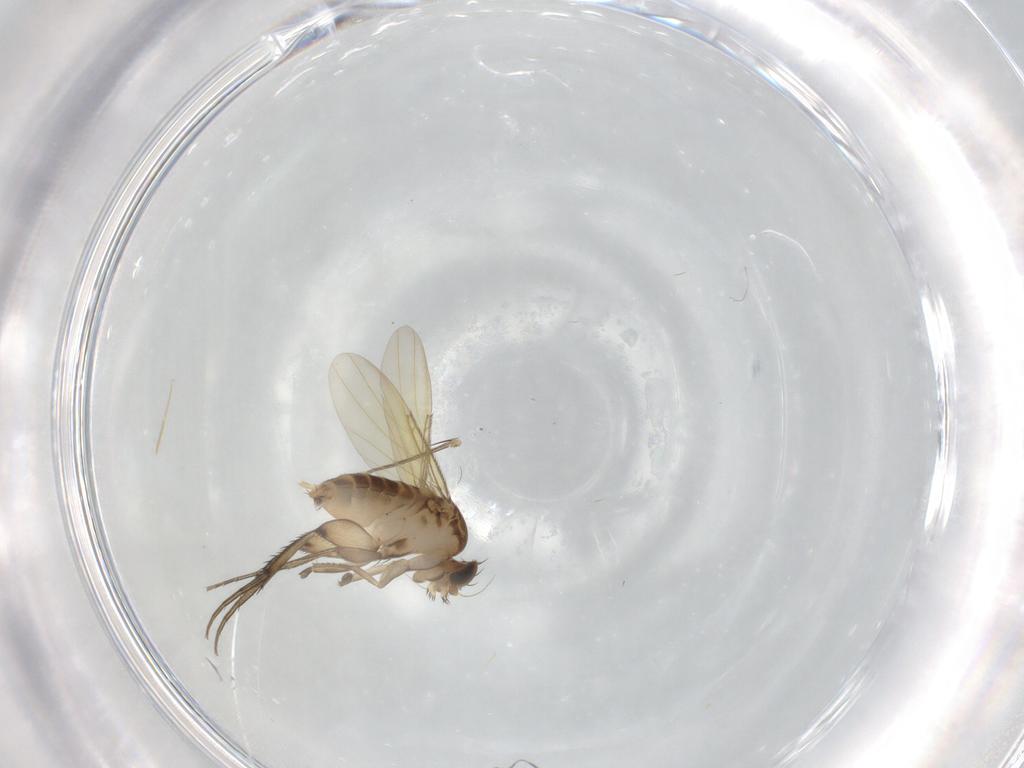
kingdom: Animalia
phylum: Arthropoda
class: Insecta
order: Diptera
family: Phoridae
